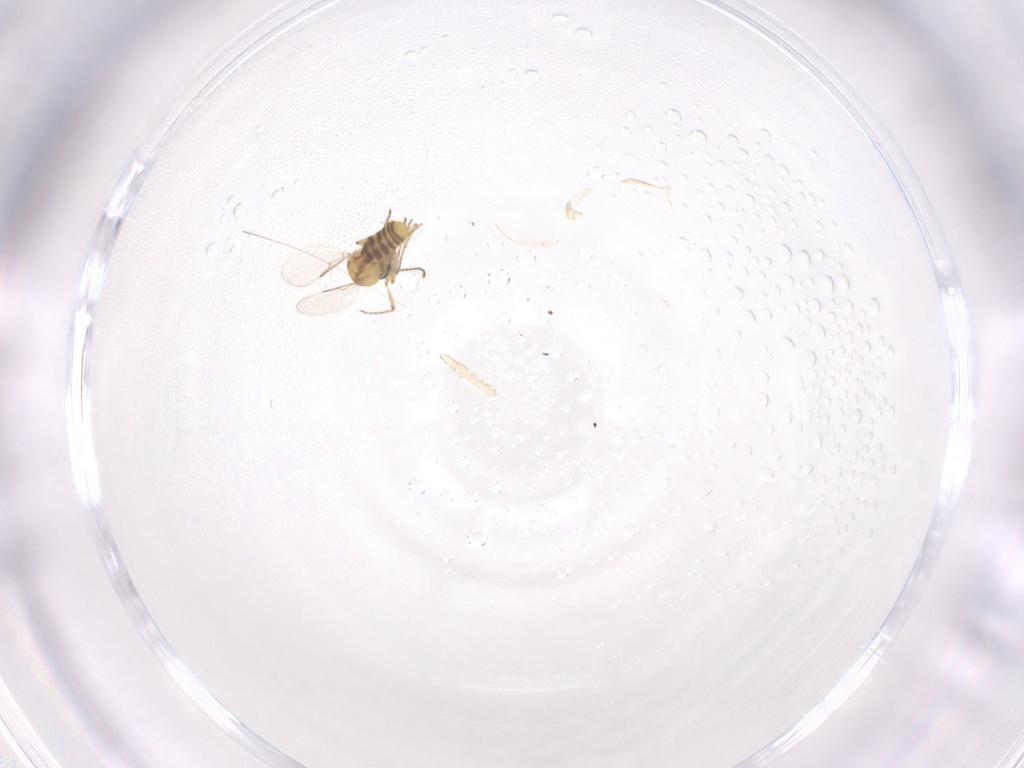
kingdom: Animalia
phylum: Arthropoda
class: Insecta
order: Diptera
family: Ceratopogonidae
